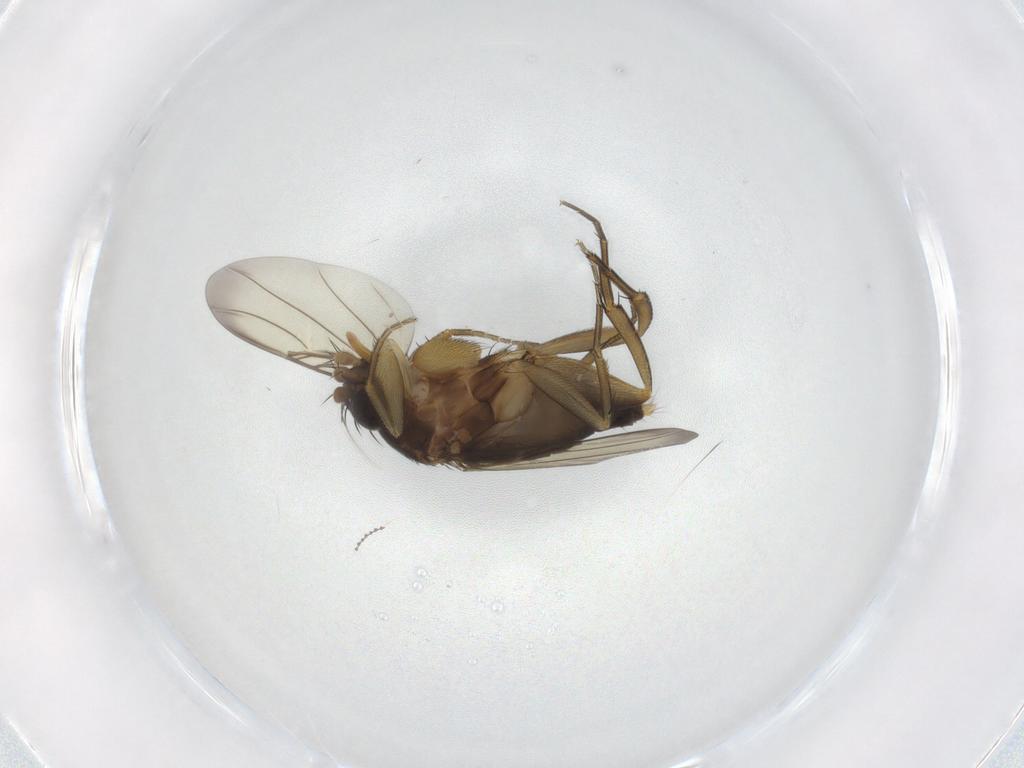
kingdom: Animalia
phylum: Arthropoda
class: Insecta
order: Diptera
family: Phoridae
